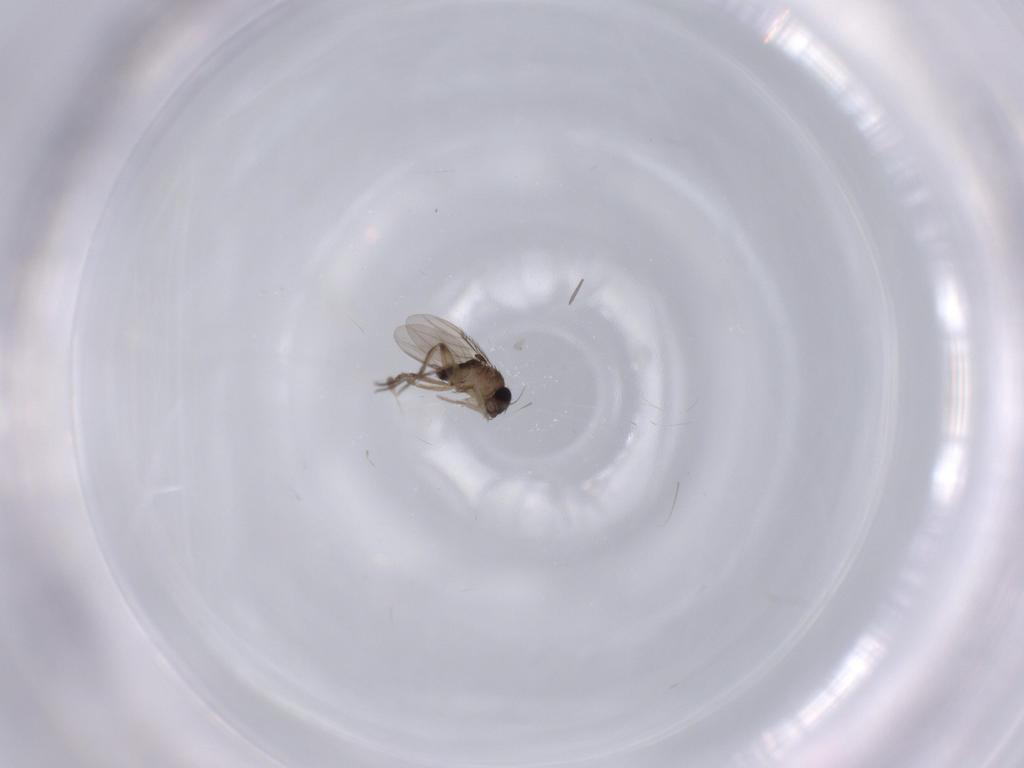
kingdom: Animalia
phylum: Arthropoda
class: Insecta
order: Diptera
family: Phoridae
